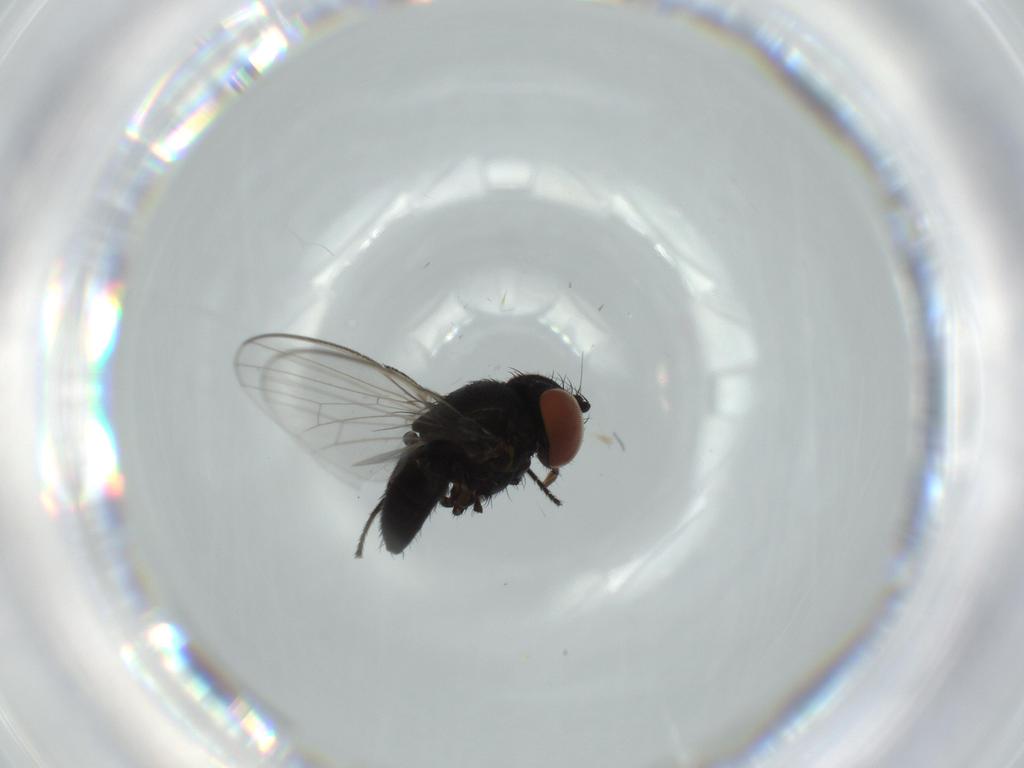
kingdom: Animalia
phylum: Arthropoda
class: Insecta
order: Diptera
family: Milichiidae
